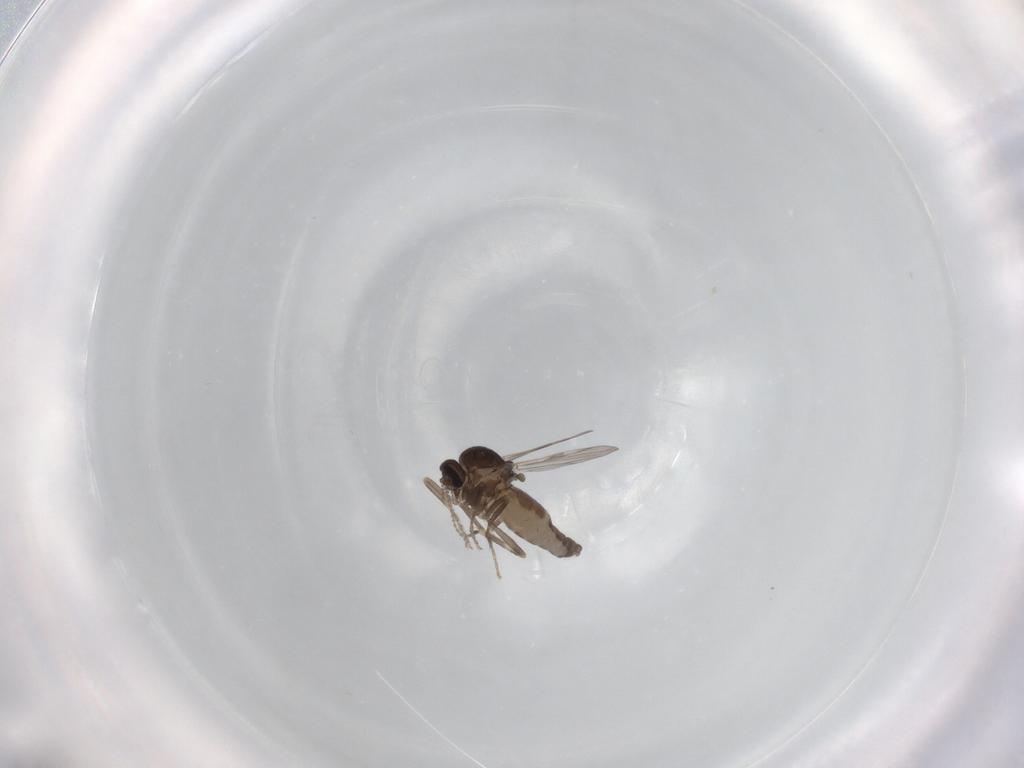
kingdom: Animalia
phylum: Arthropoda
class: Insecta
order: Diptera
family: Ceratopogonidae
